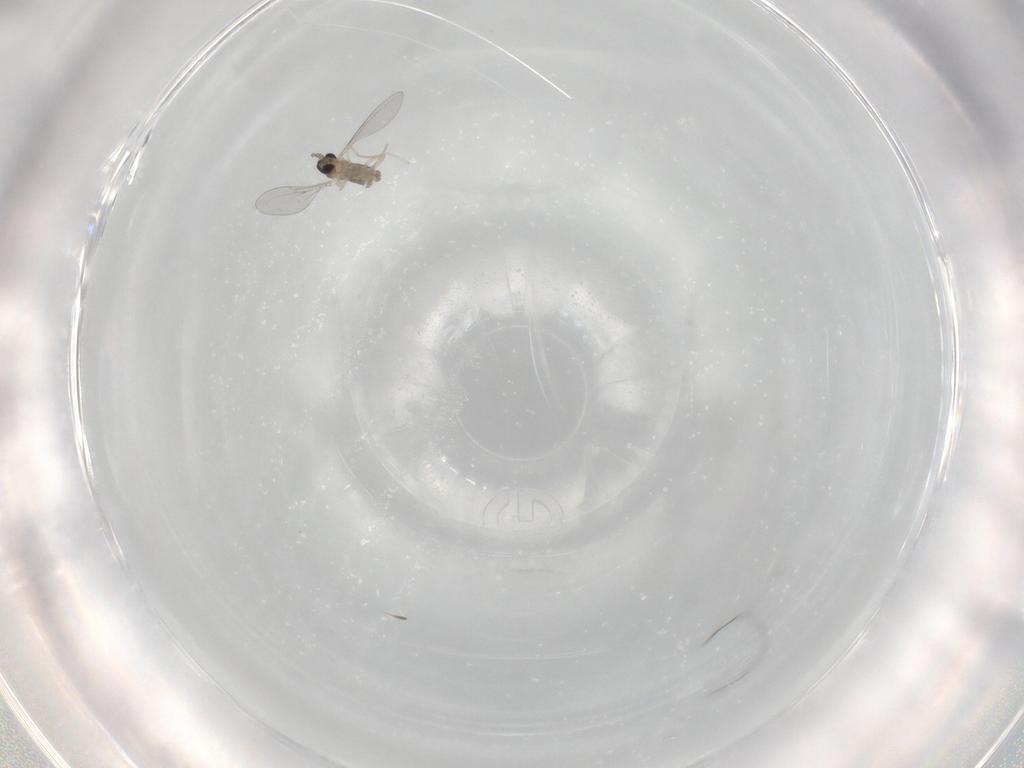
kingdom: Animalia
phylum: Arthropoda
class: Insecta
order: Diptera
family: Cecidomyiidae
